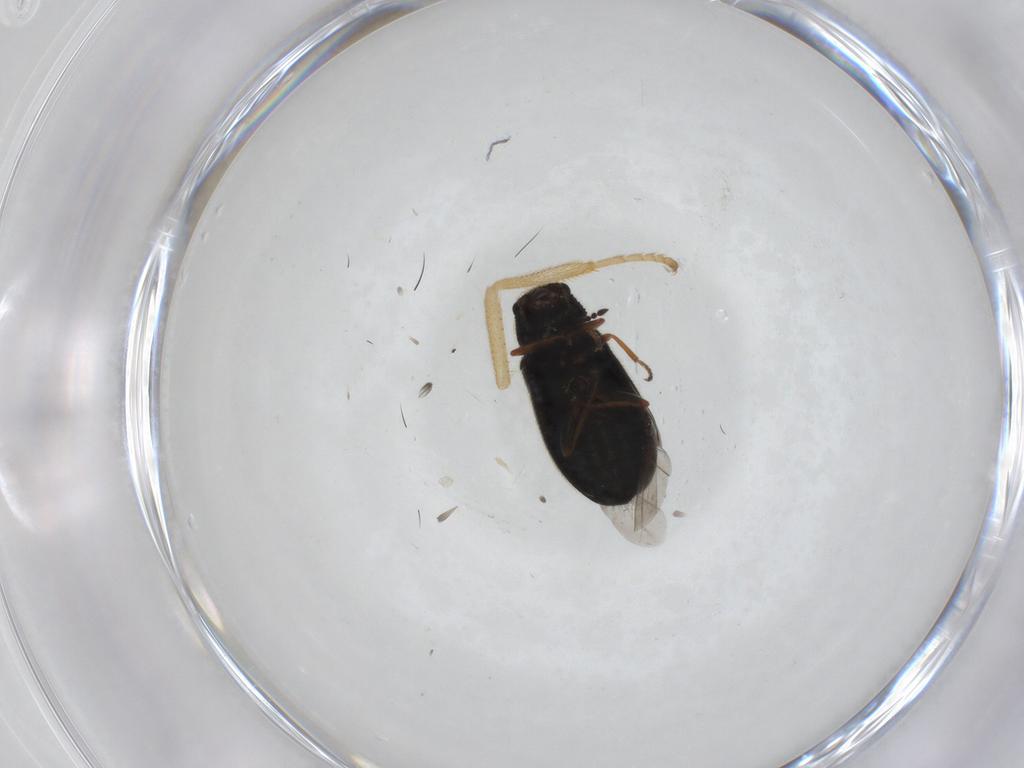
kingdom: Animalia
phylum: Arthropoda
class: Insecta
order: Coleoptera
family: Melyridae
